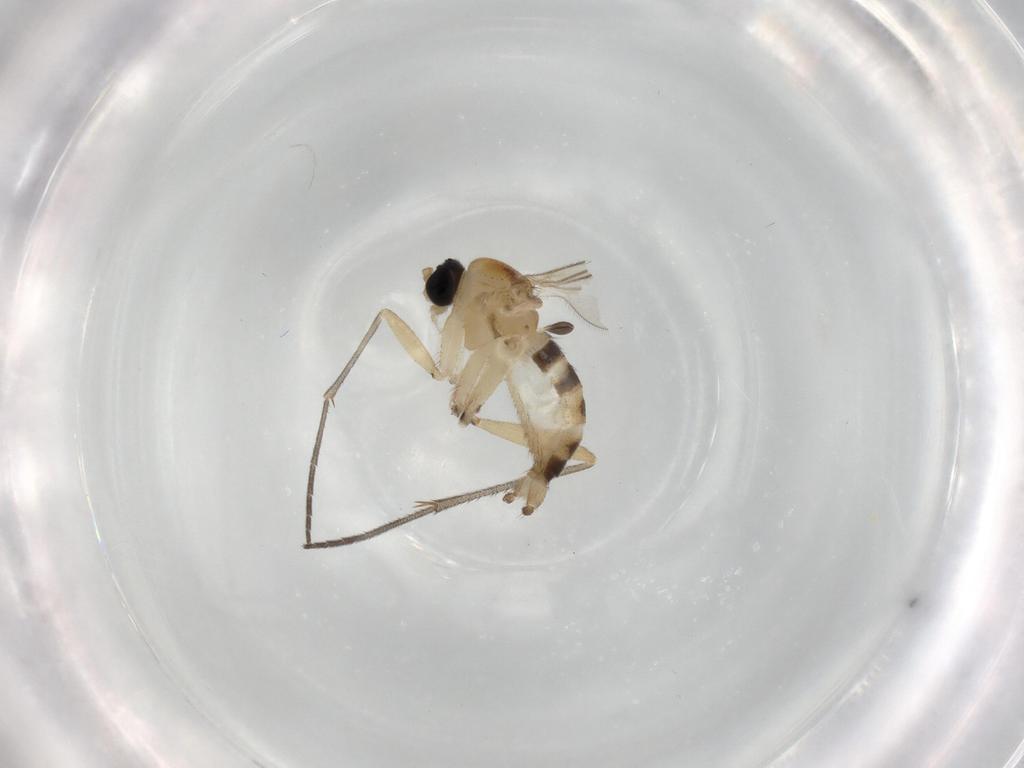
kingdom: Animalia
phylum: Arthropoda
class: Insecta
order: Diptera
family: Sciaridae
